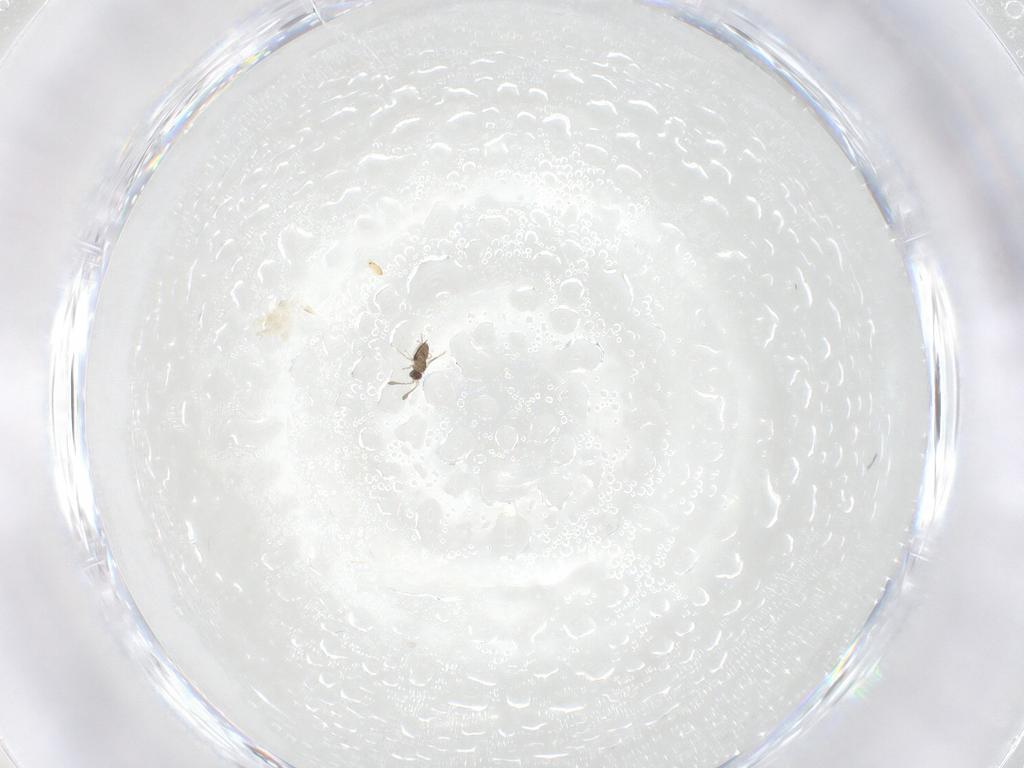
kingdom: Animalia
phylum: Arthropoda
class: Insecta
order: Hymenoptera
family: Mymaridae
